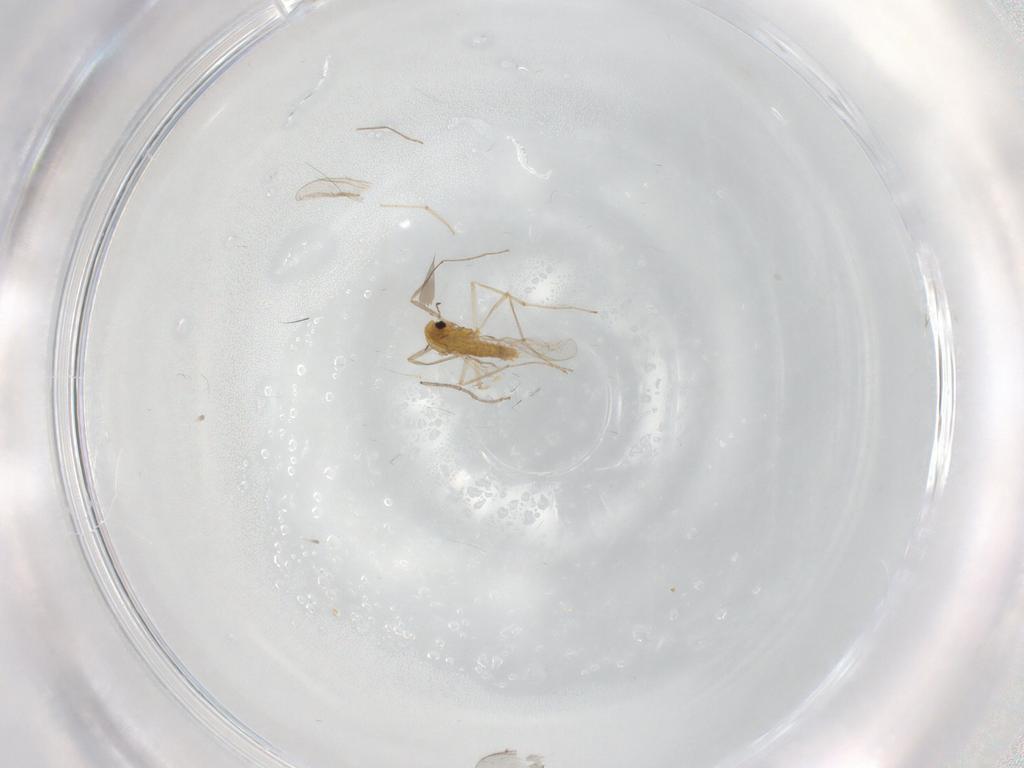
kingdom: Animalia
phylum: Arthropoda
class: Insecta
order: Diptera
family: Chironomidae
